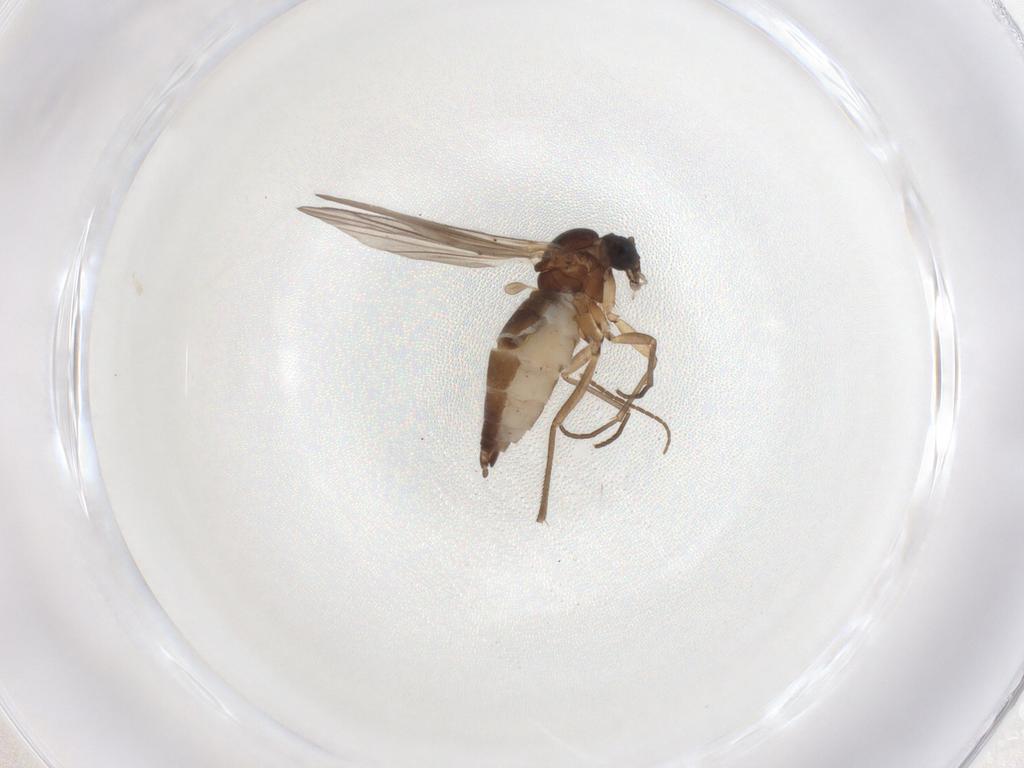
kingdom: Animalia
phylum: Arthropoda
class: Insecta
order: Diptera
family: Sciaridae
